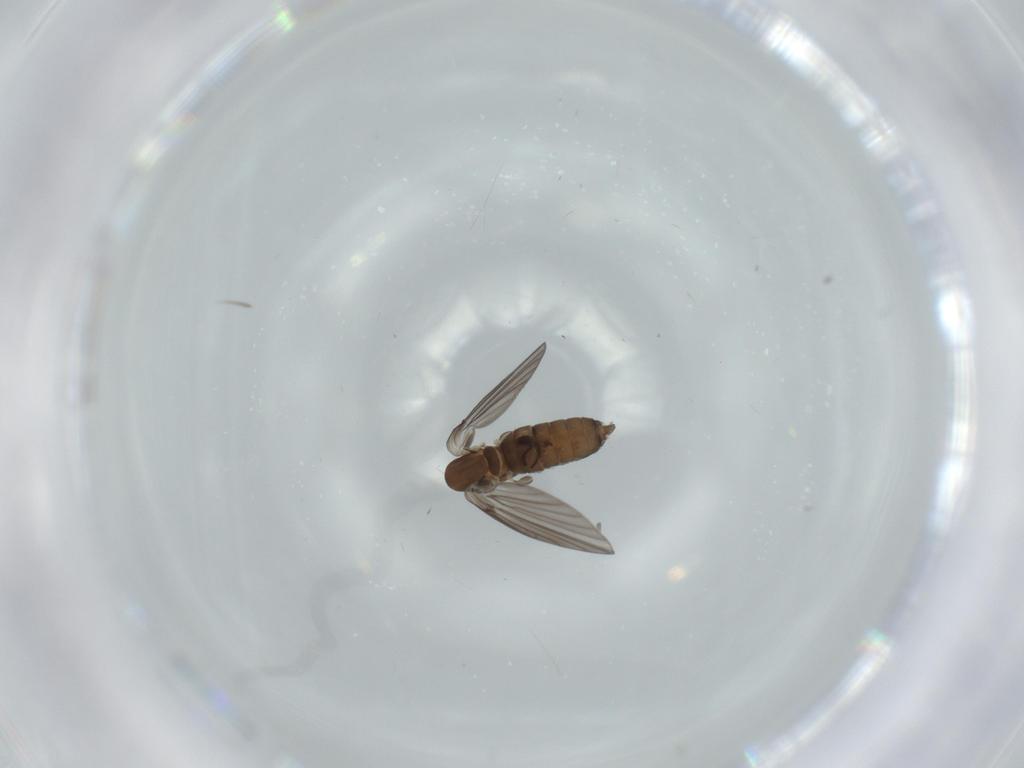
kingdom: Animalia
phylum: Arthropoda
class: Insecta
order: Diptera
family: Psychodidae
